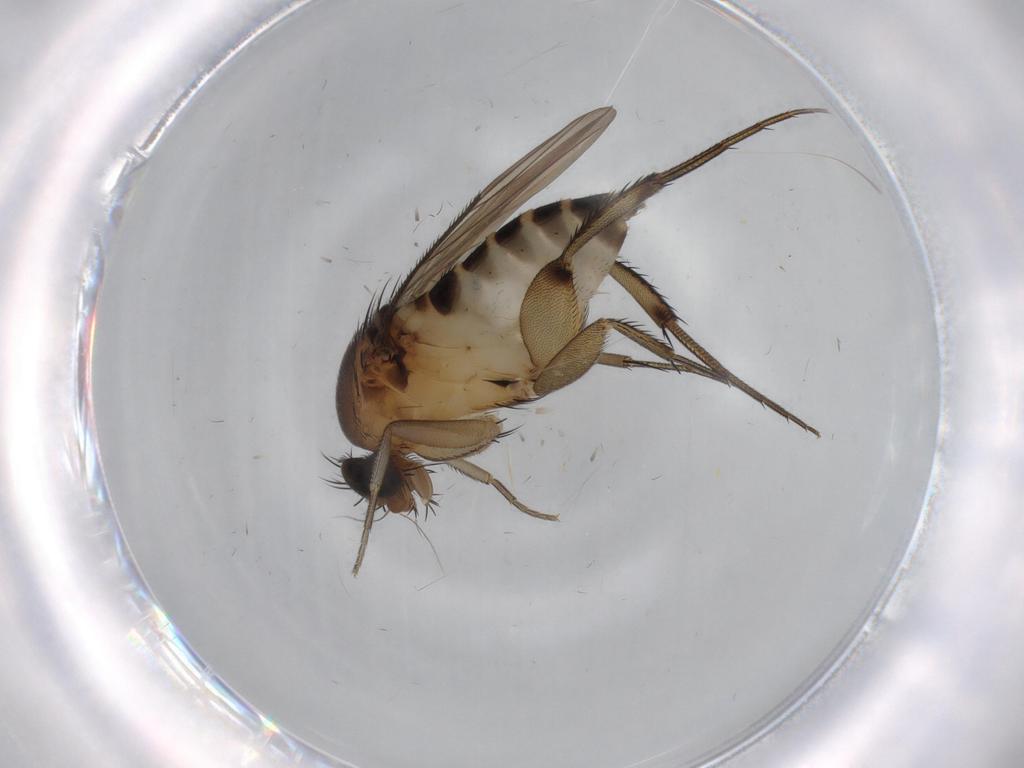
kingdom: Animalia
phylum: Arthropoda
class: Insecta
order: Diptera
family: Phoridae
